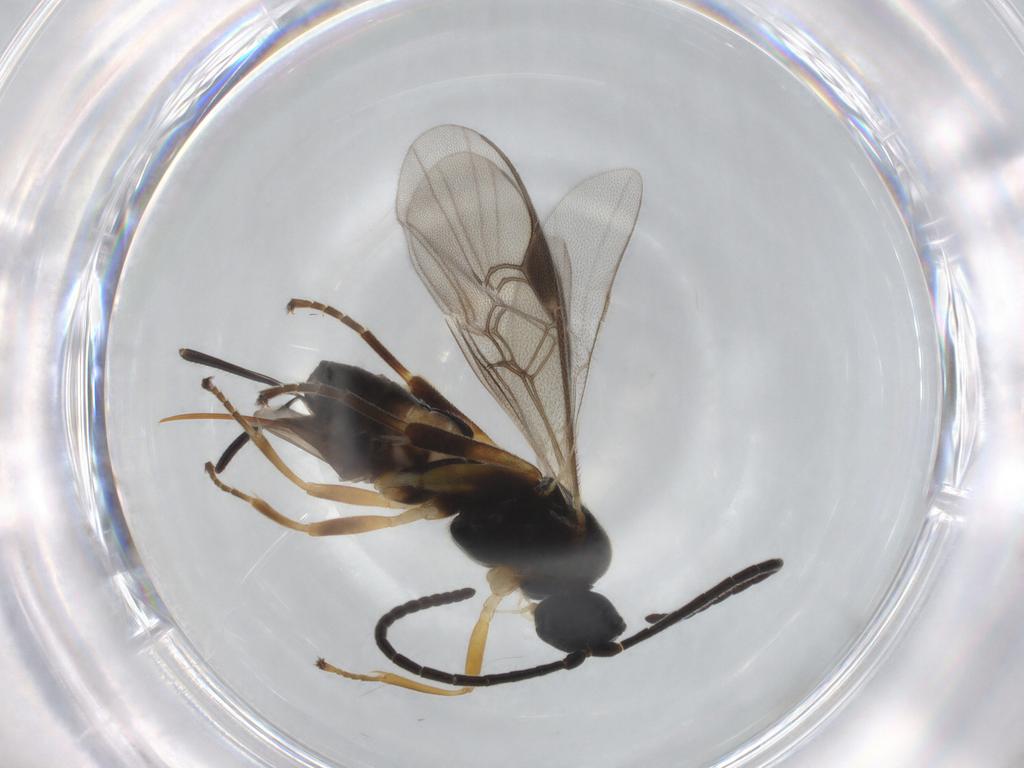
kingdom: Animalia
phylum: Arthropoda
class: Insecta
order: Hymenoptera
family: Braconidae
